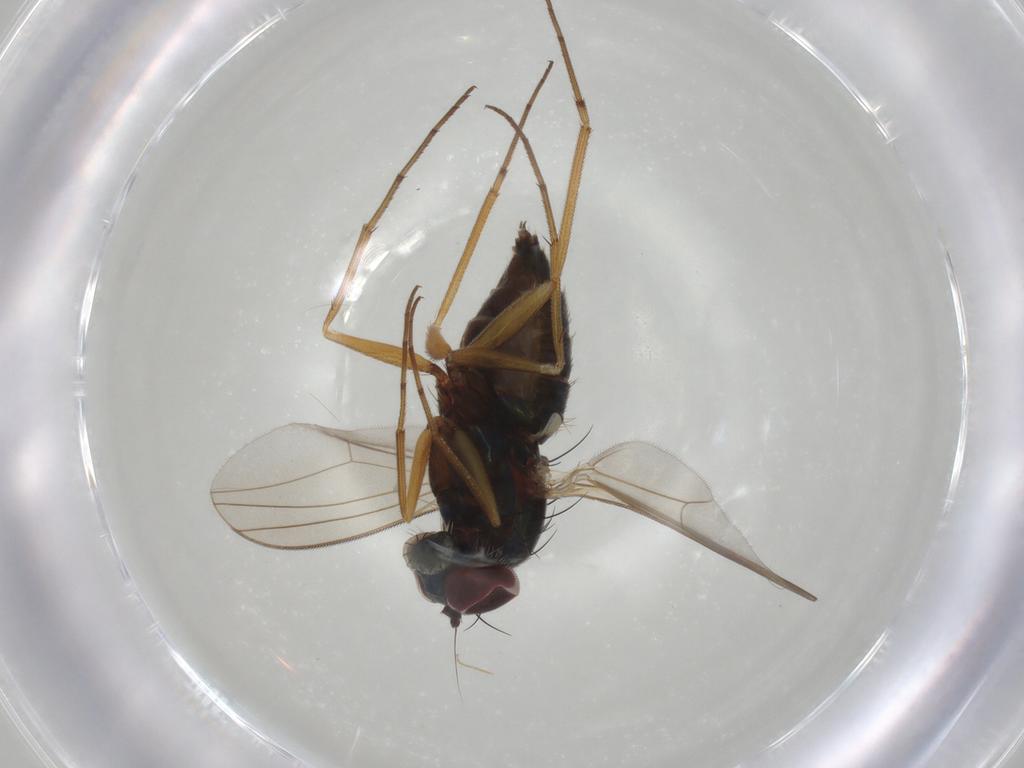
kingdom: Animalia
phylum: Arthropoda
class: Insecta
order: Diptera
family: Dolichopodidae
